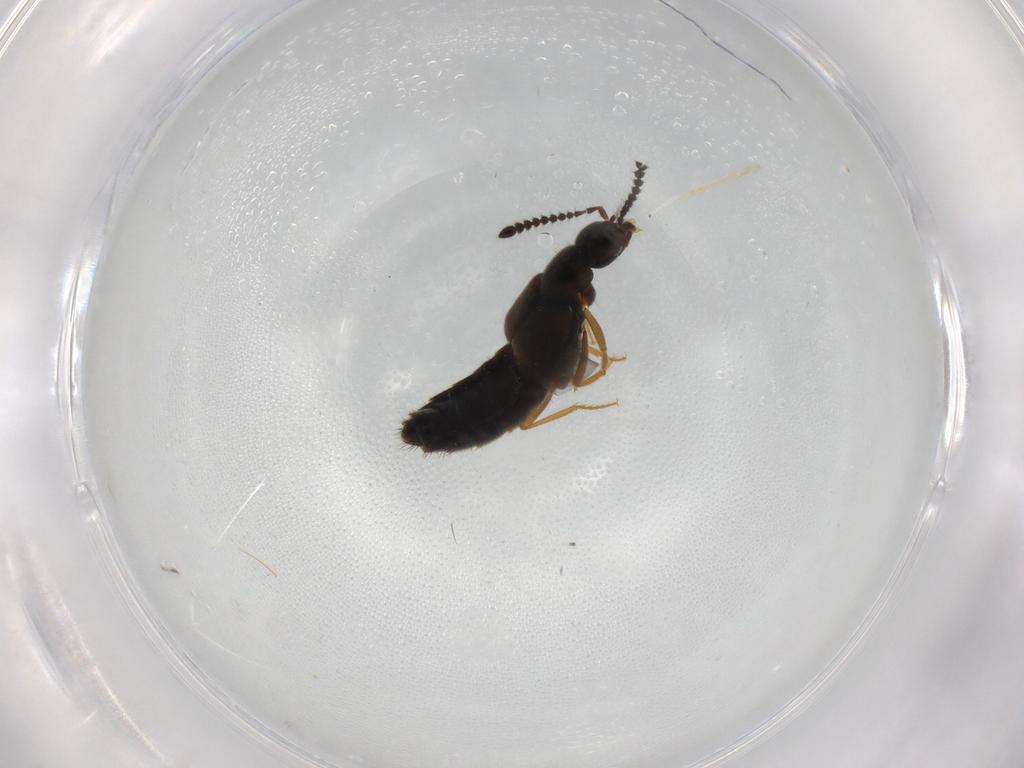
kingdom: Animalia
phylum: Arthropoda
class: Insecta
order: Coleoptera
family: Staphylinidae
